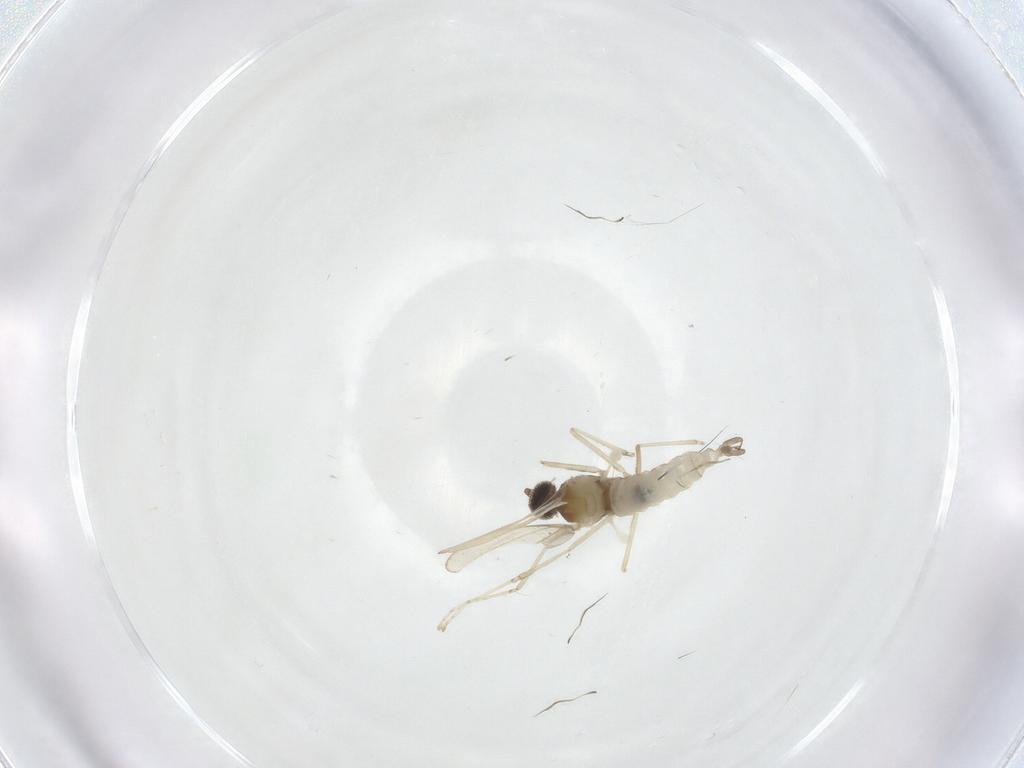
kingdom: Animalia
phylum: Arthropoda
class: Insecta
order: Diptera
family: Cecidomyiidae
